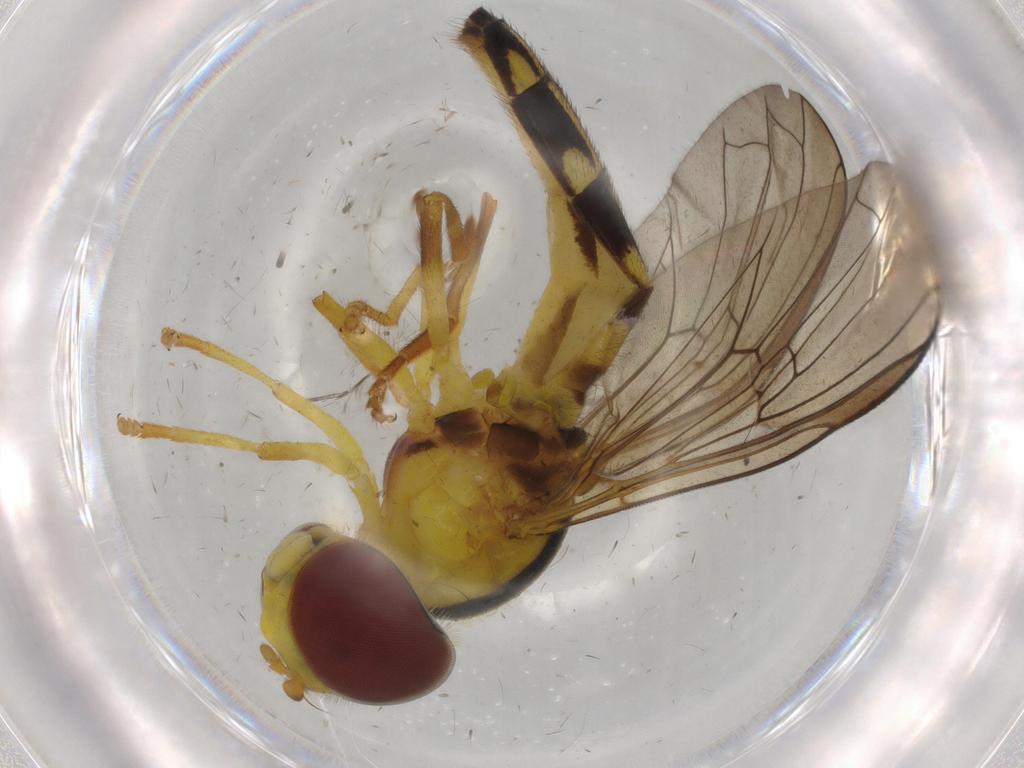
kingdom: Animalia
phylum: Arthropoda
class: Insecta
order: Diptera
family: Syrphidae
